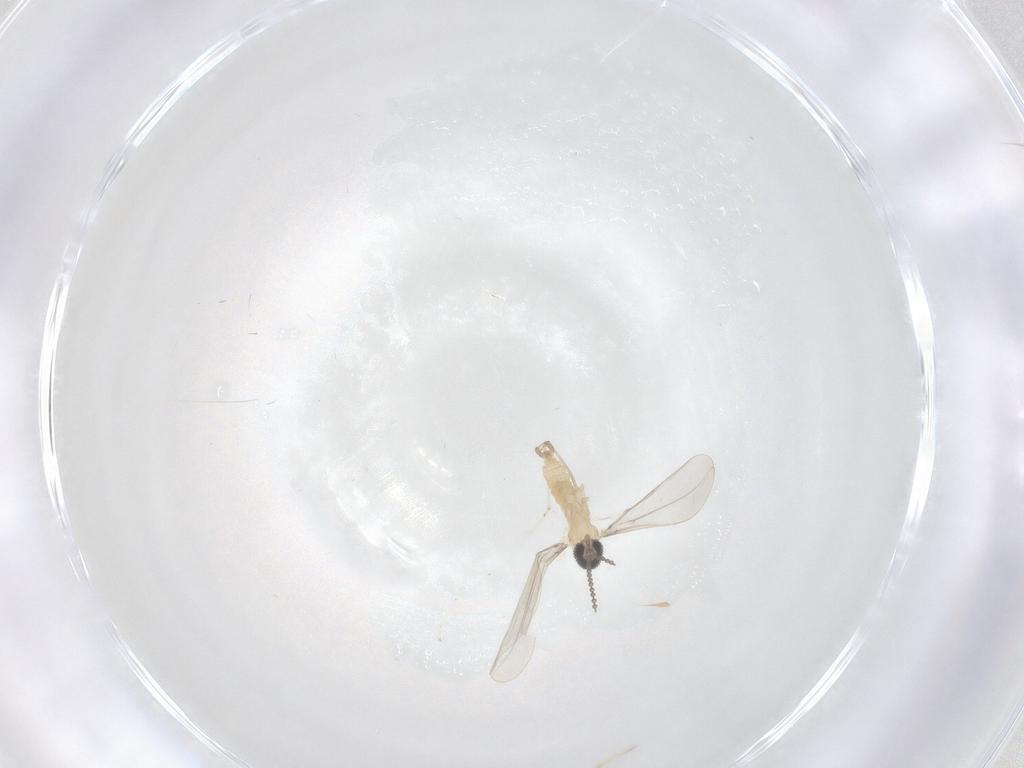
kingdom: Animalia
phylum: Arthropoda
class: Insecta
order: Diptera
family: Cecidomyiidae
